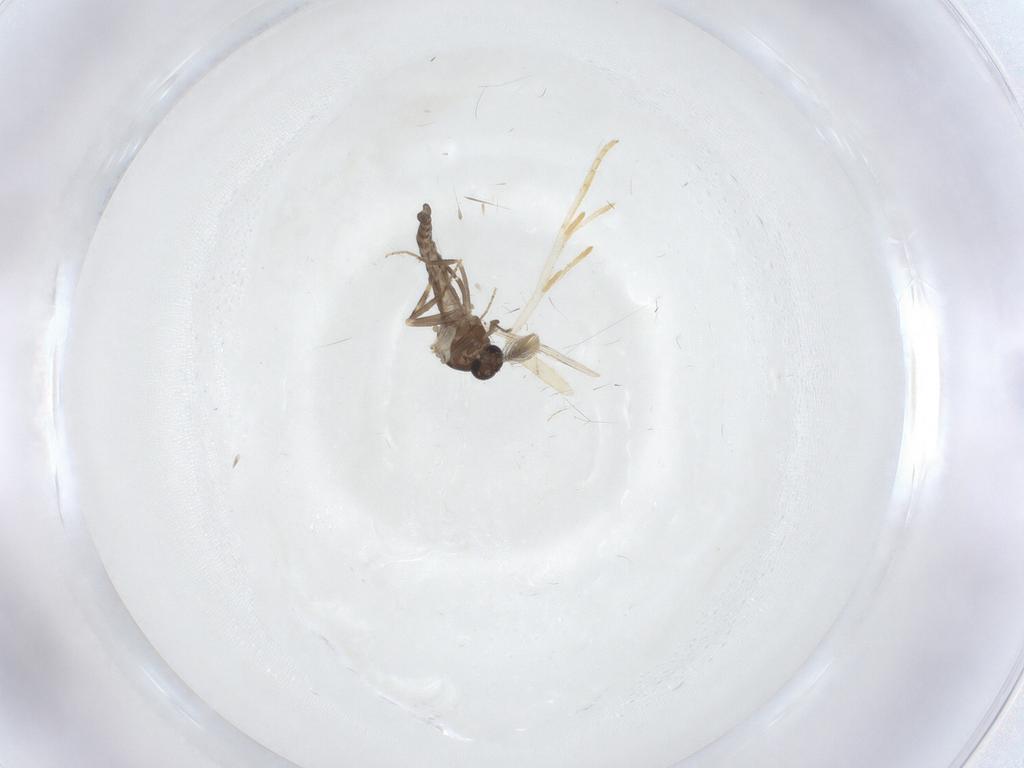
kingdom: Animalia
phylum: Arthropoda
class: Insecta
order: Diptera
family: Ceratopogonidae
